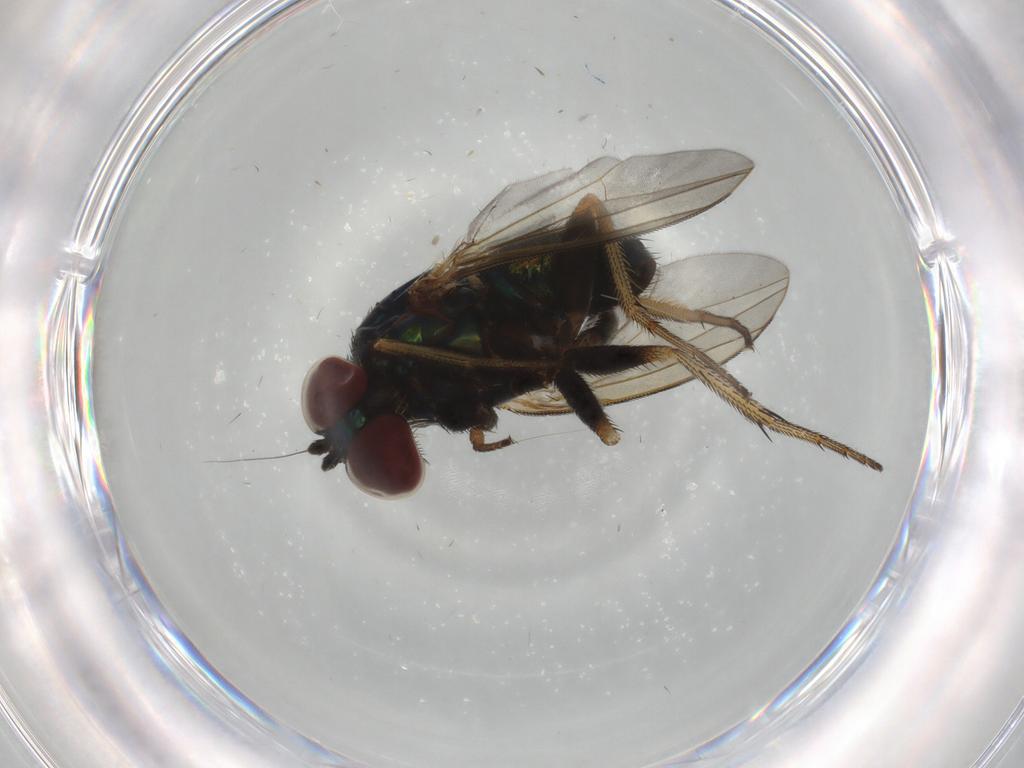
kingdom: Animalia
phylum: Arthropoda
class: Insecta
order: Diptera
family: Dolichopodidae
